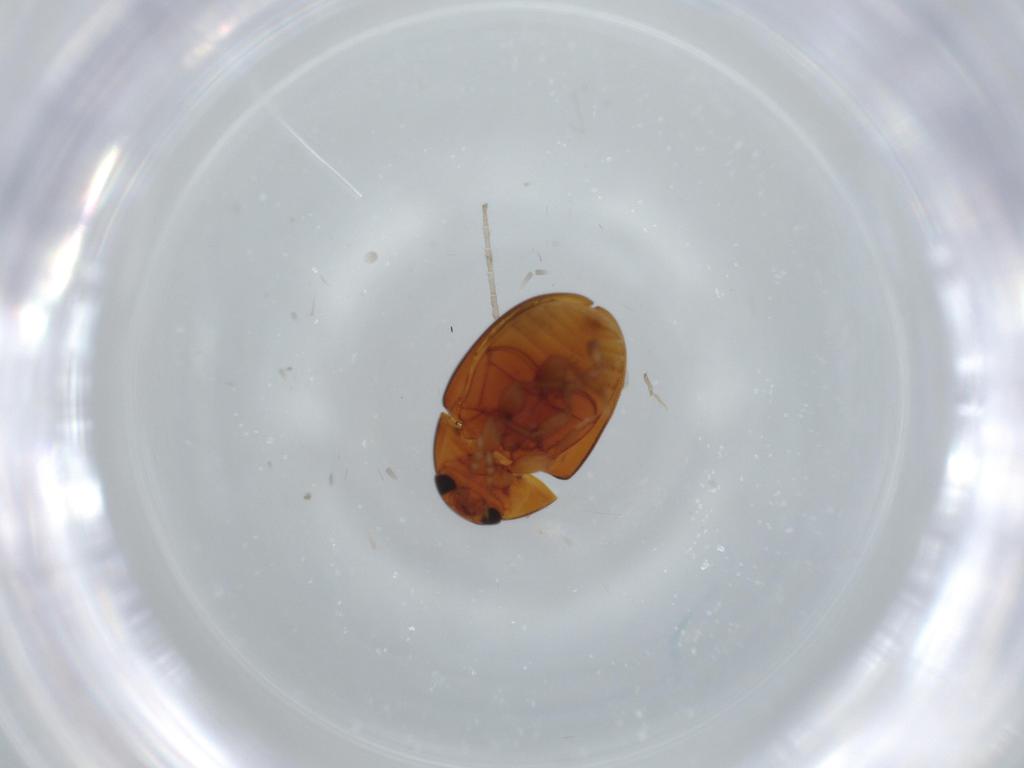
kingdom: Animalia
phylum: Arthropoda
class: Insecta
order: Coleoptera
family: Phalacridae
